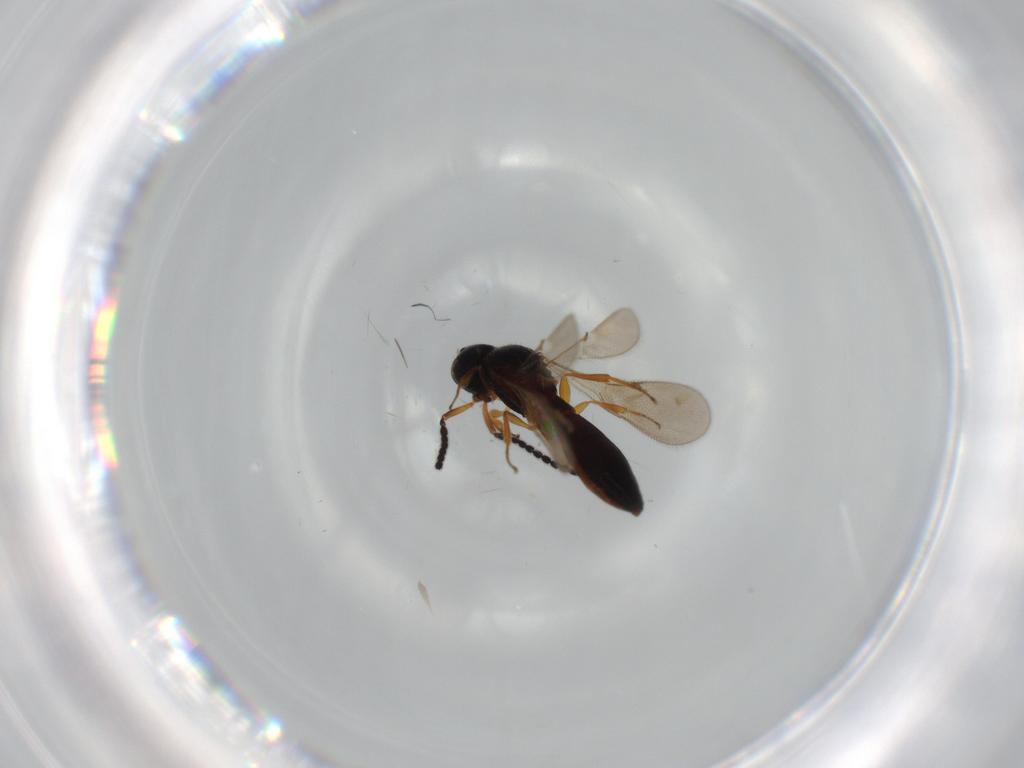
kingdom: Animalia
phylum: Arthropoda
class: Insecta
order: Hymenoptera
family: Scelionidae
